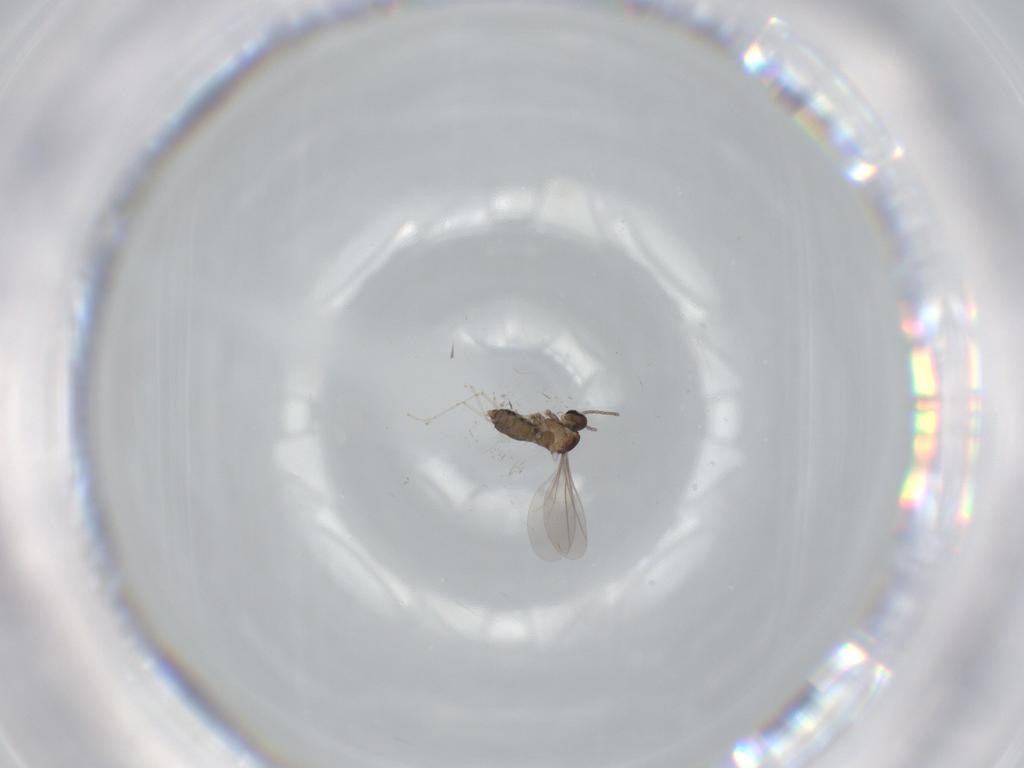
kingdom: Animalia
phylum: Arthropoda
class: Insecta
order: Diptera
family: Cecidomyiidae
